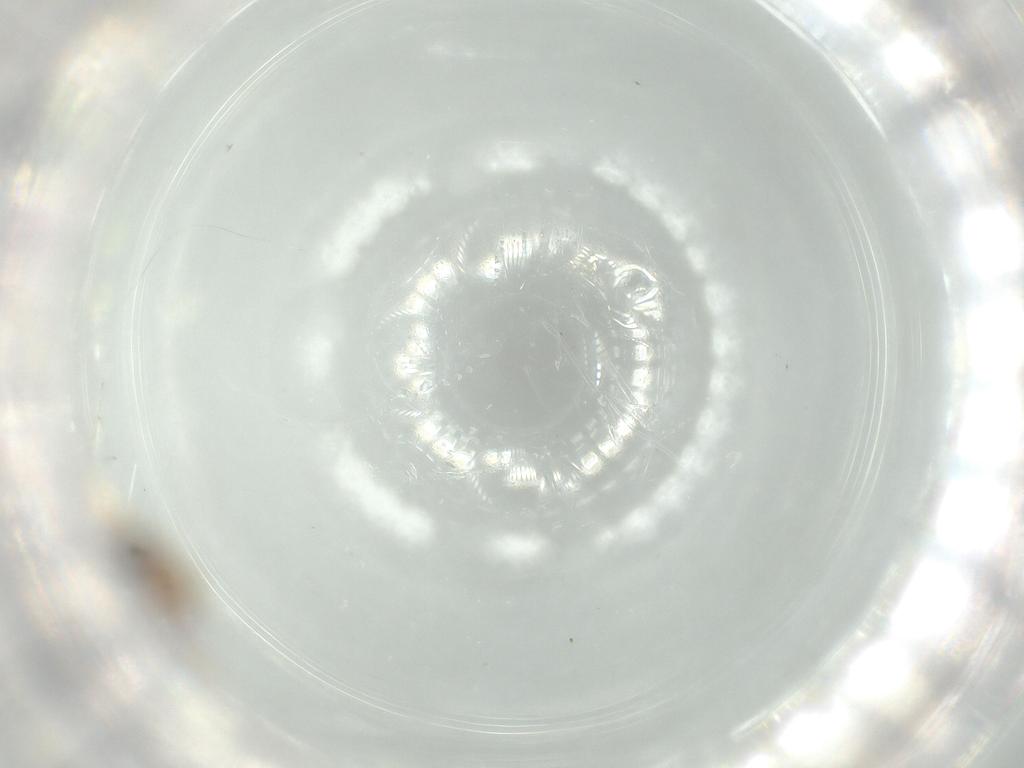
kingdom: Animalia
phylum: Arthropoda
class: Insecta
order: Diptera
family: Cecidomyiidae
